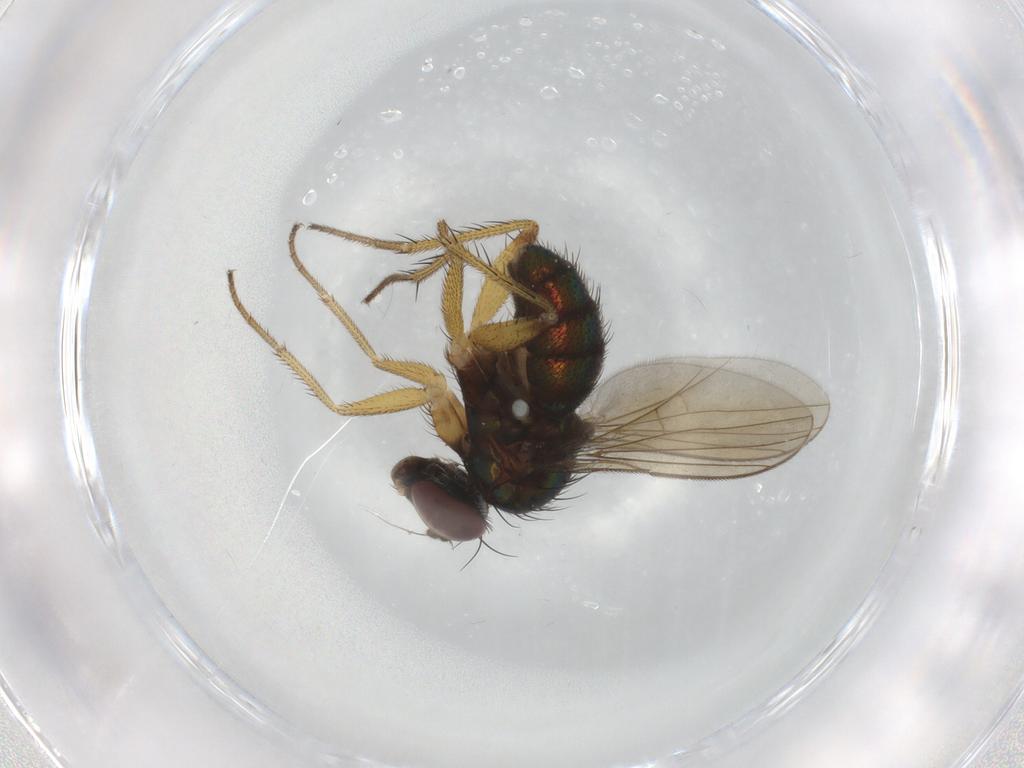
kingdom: Animalia
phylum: Arthropoda
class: Insecta
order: Diptera
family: Dolichopodidae
